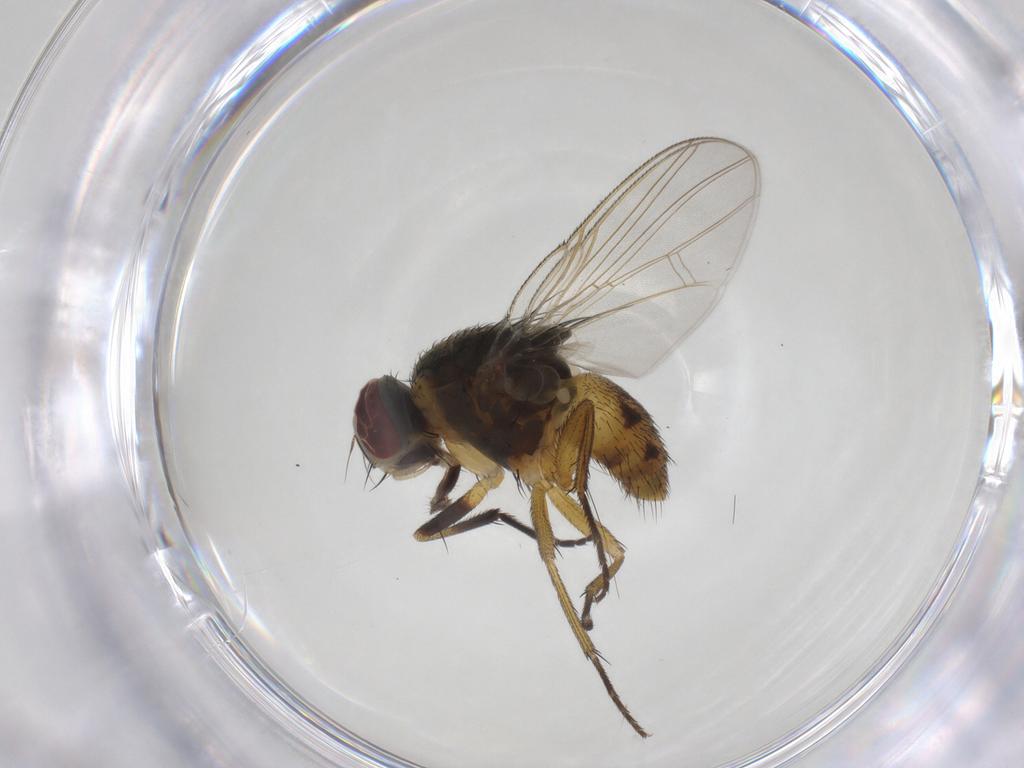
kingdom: Animalia
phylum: Arthropoda
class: Insecta
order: Diptera
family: Muscidae
